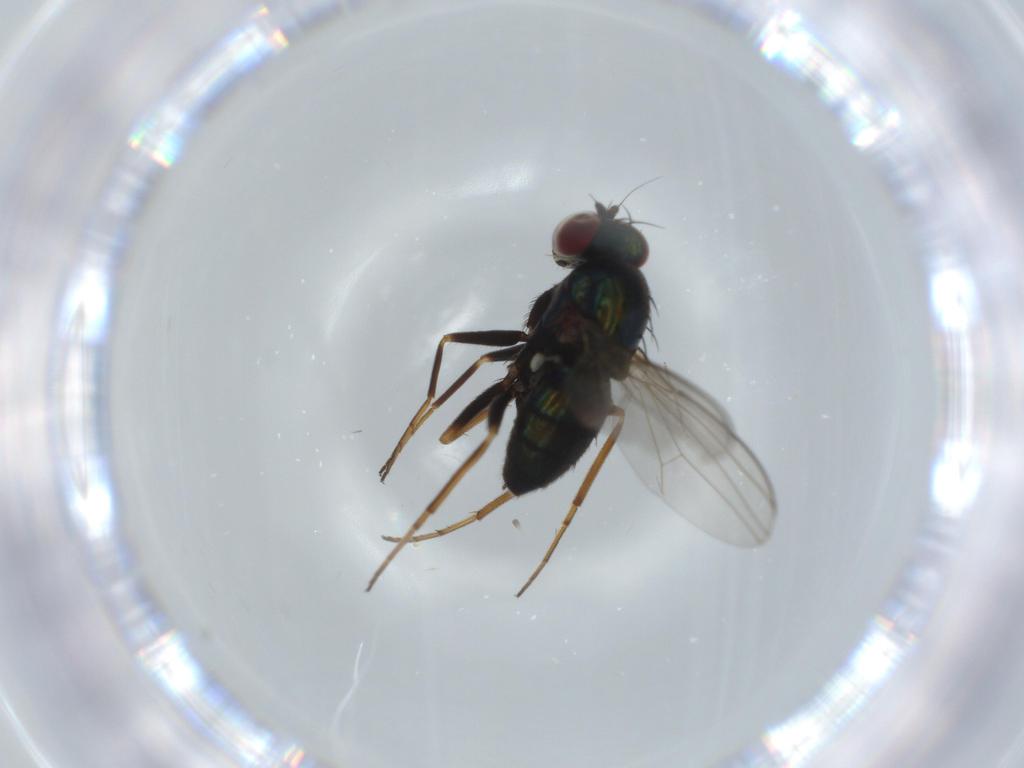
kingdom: Animalia
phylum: Arthropoda
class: Insecta
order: Diptera
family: Dolichopodidae
